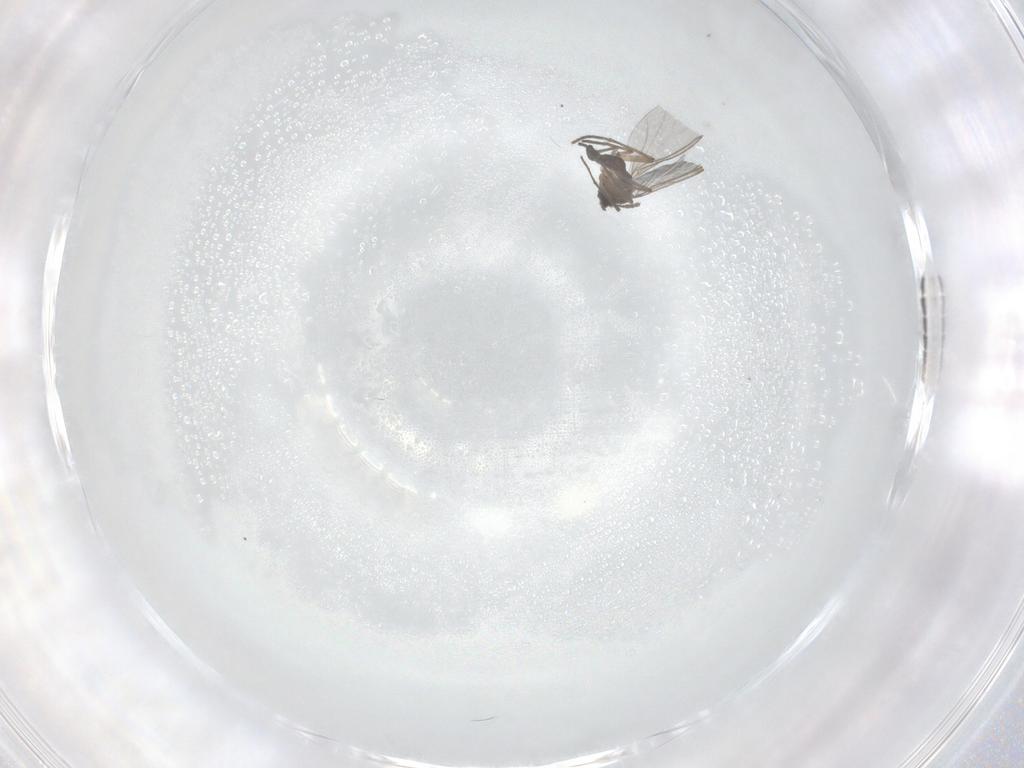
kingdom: Animalia
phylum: Arthropoda
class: Insecta
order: Diptera
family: Sciaridae
